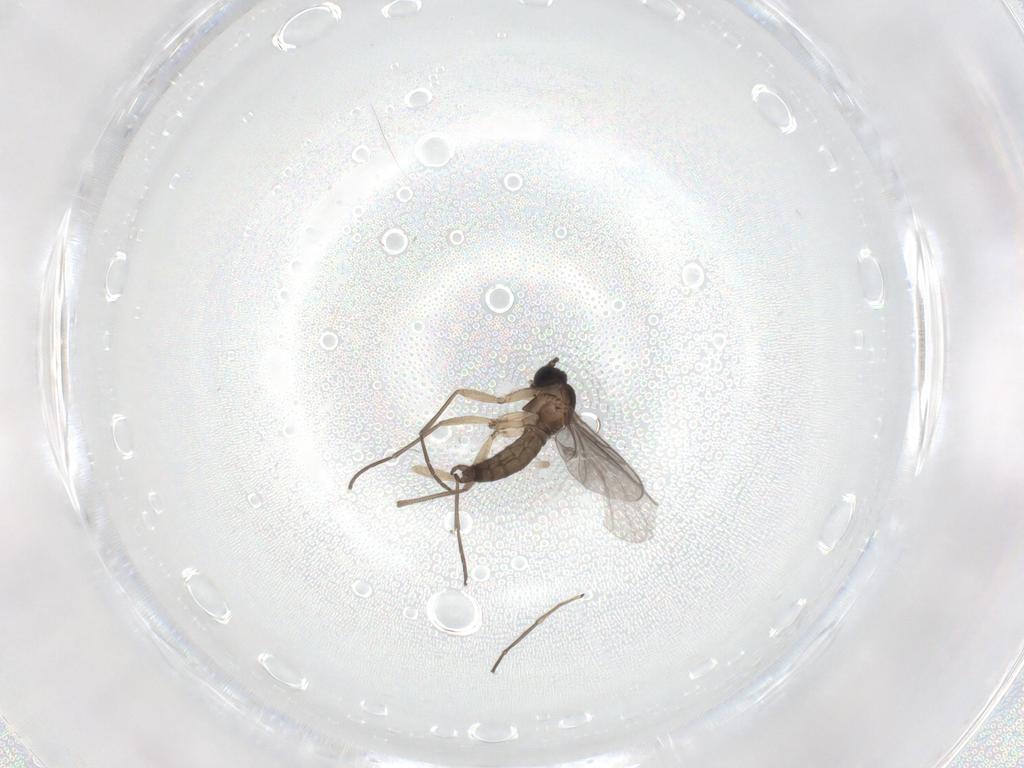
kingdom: Animalia
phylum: Arthropoda
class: Insecta
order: Diptera
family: Sciaridae
